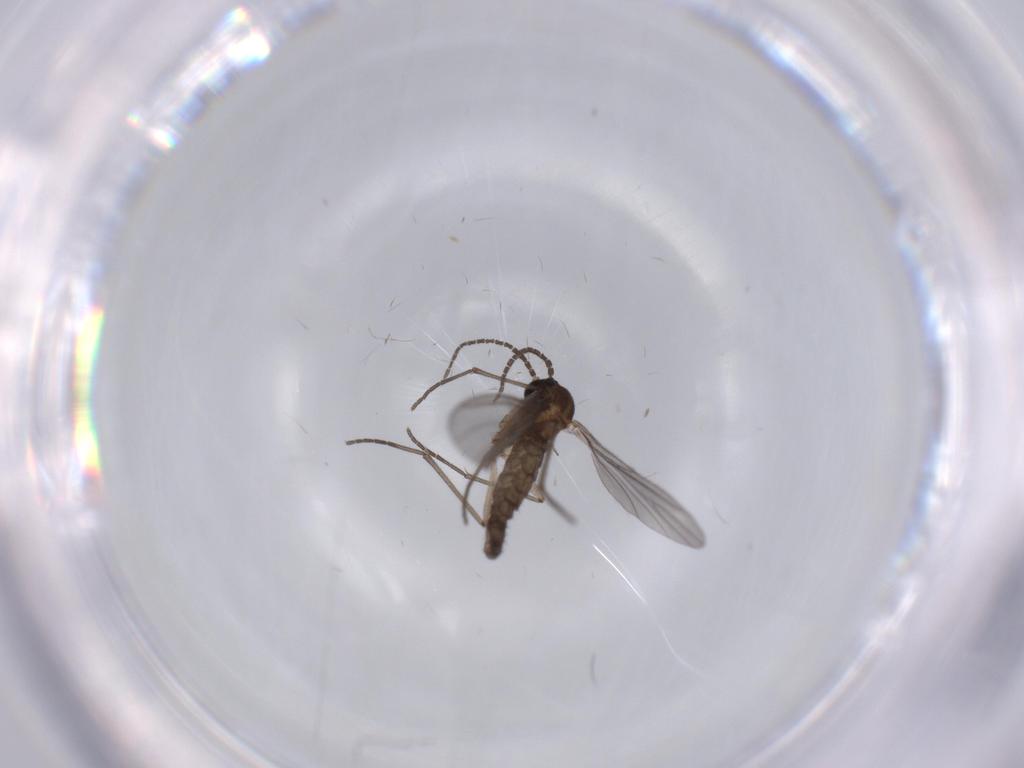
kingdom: Animalia
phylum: Arthropoda
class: Insecta
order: Diptera
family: Sciaridae
